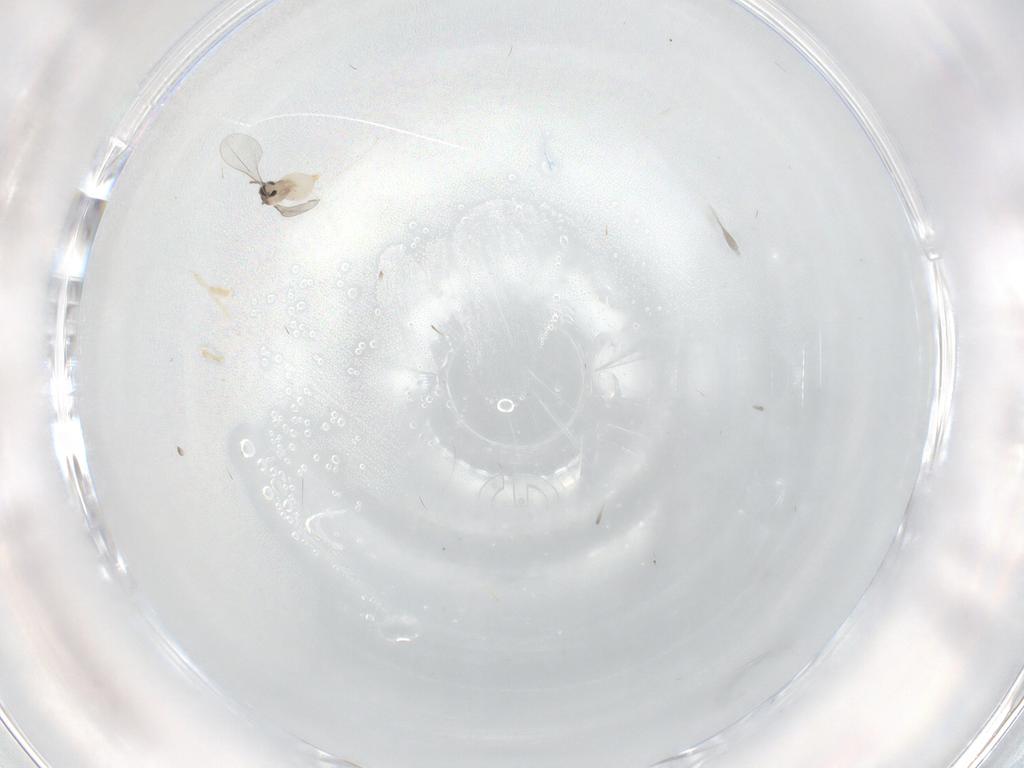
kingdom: Animalia
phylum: Arthropoda
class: Insecta
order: Diptera
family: Cecidomyiidae
